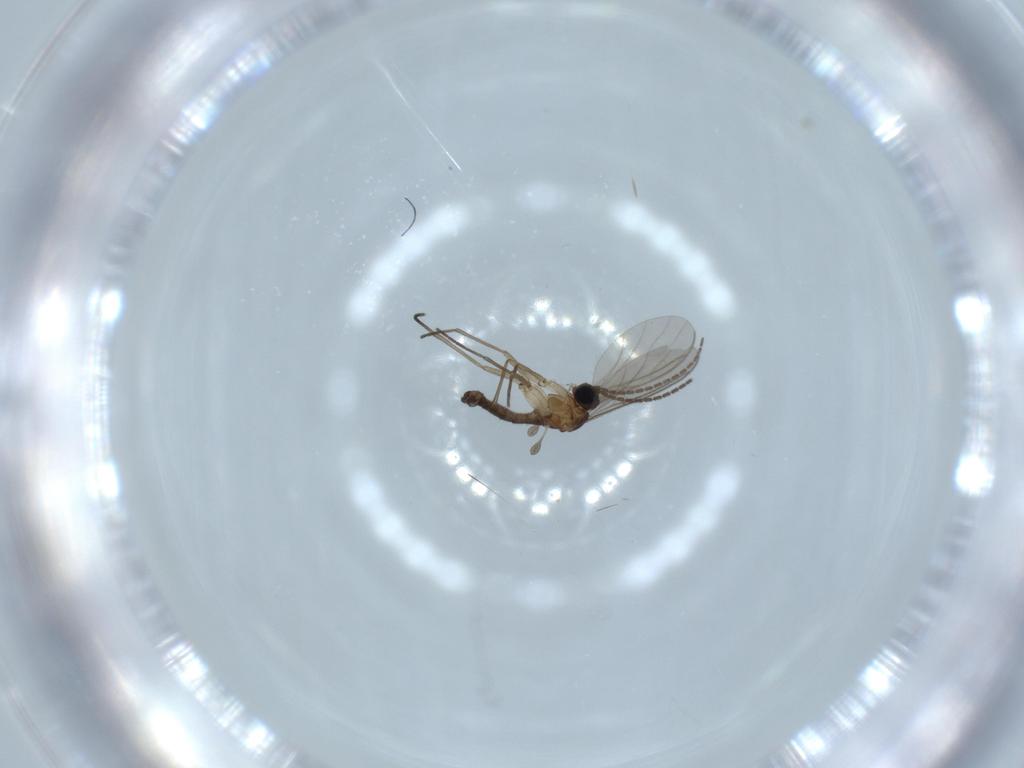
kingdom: Animalia
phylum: Arthropoda
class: Insecta
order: Diptera
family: Sciaridae
